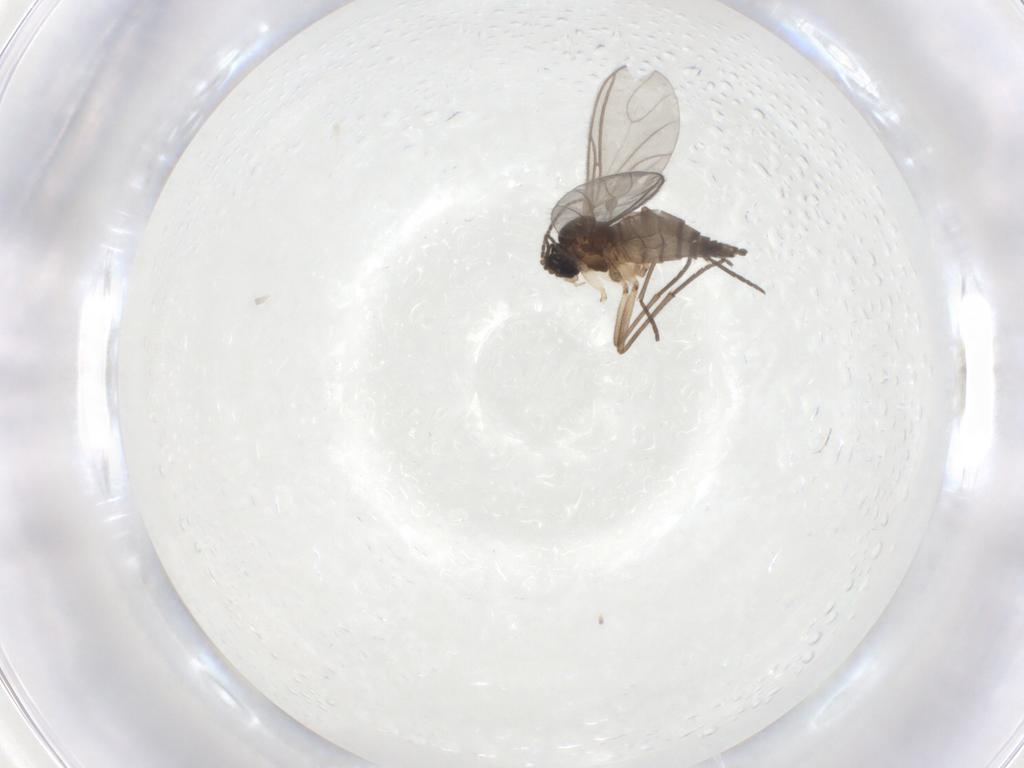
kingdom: Animalia
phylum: Arthropoda
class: Insecta
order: Diptera
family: Sciaridae
